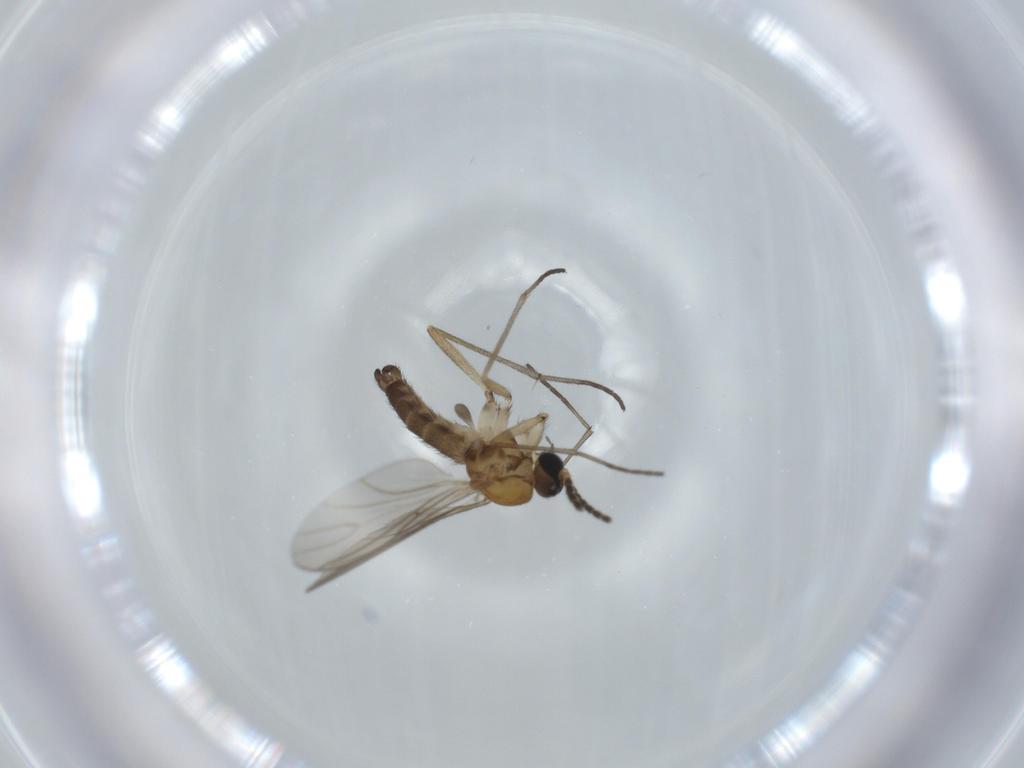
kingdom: Animalia
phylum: Arthropoda
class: Insecta
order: Diptera
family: Sciaridae
